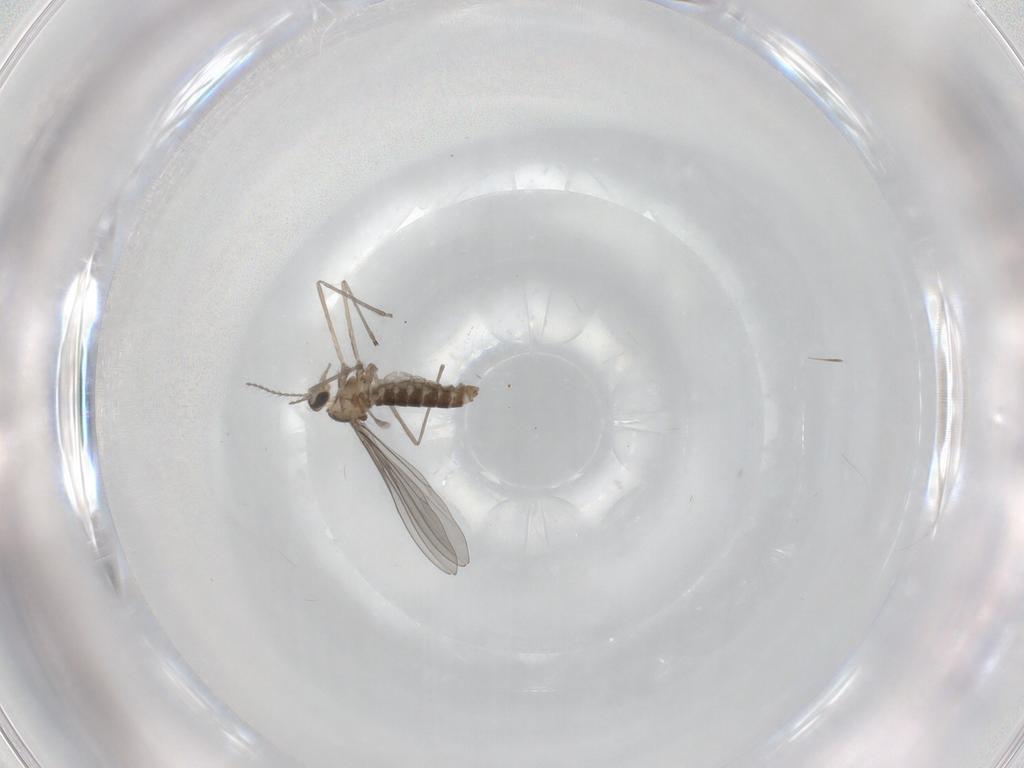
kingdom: Animalia
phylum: Arthropoda
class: Insecta
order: Diptera
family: Cecidomyiidae
